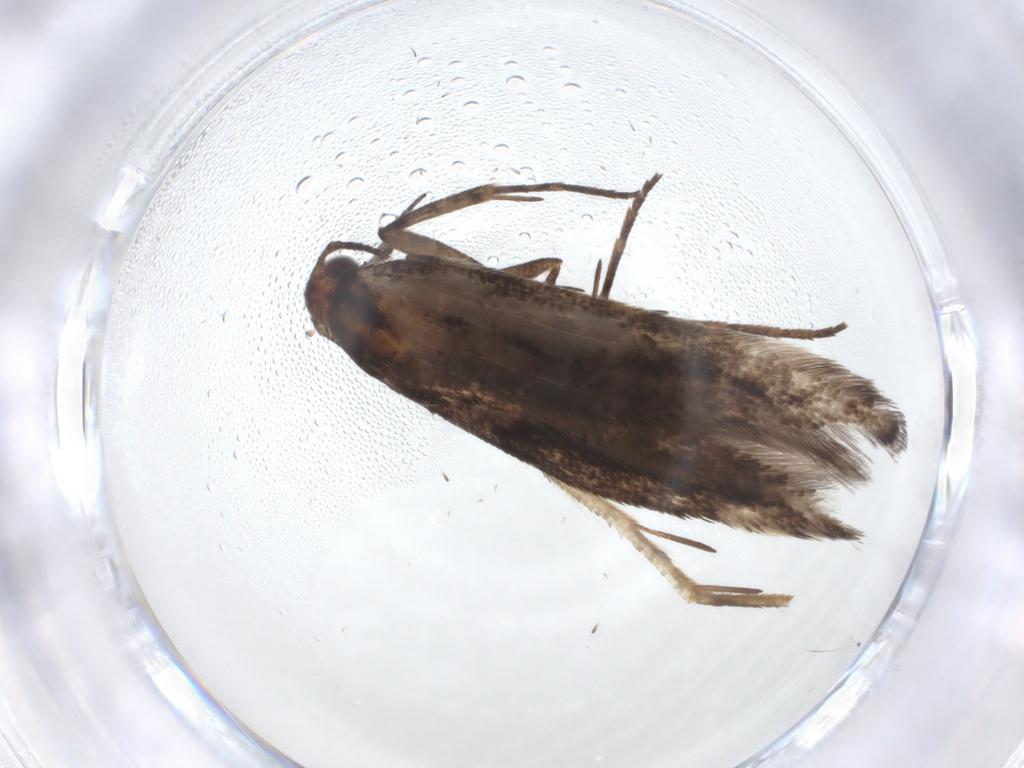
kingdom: Animalia
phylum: Arthropoda
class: Insecta
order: Lepidoptera
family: Gelechiidae
